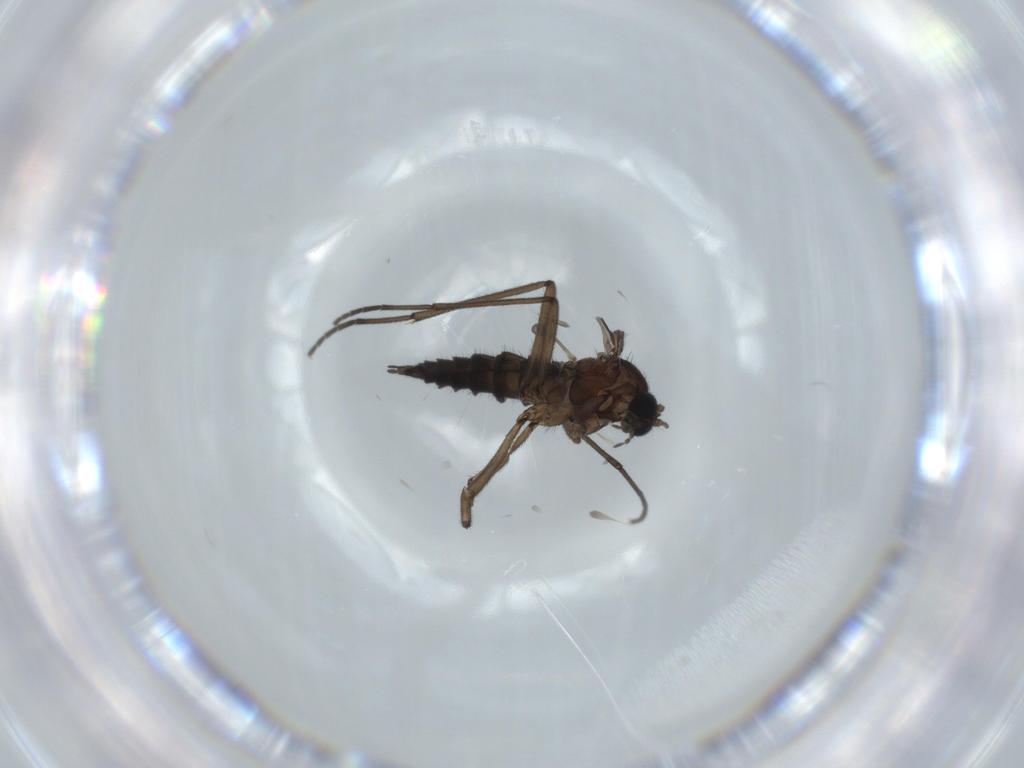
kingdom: Animalia
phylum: Arthropoda
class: Insecta
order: Diptera
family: Sciaridae
